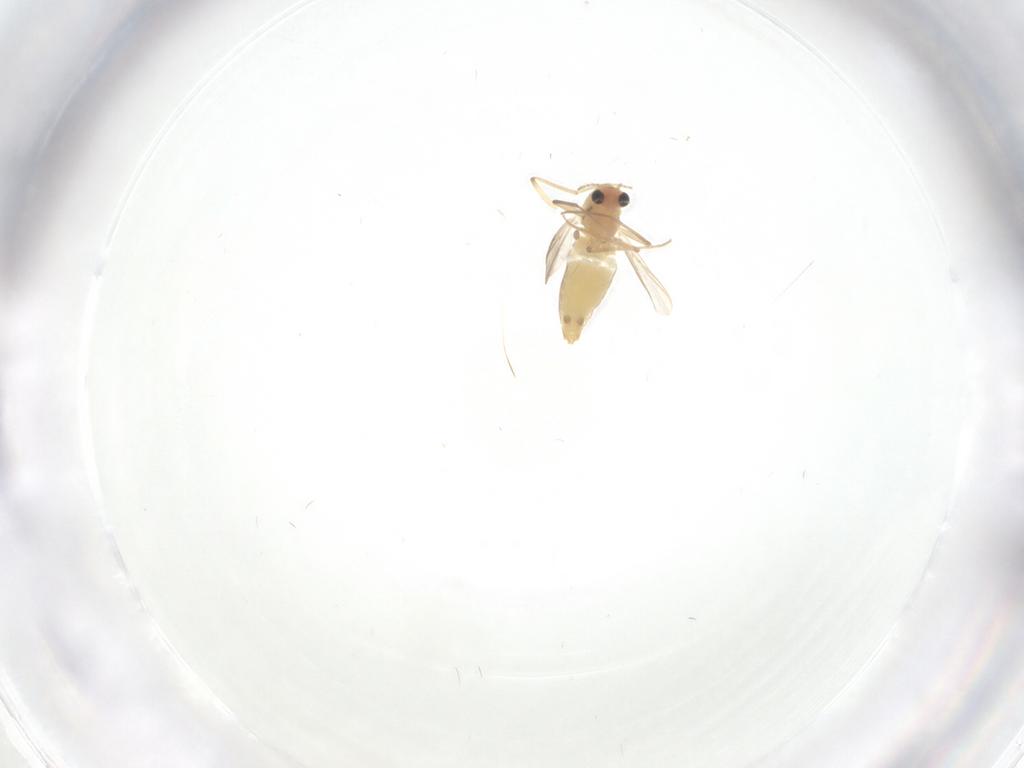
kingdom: Animalia
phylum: Arthropoda
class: Insecta
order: Diptera
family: Chironomidae
